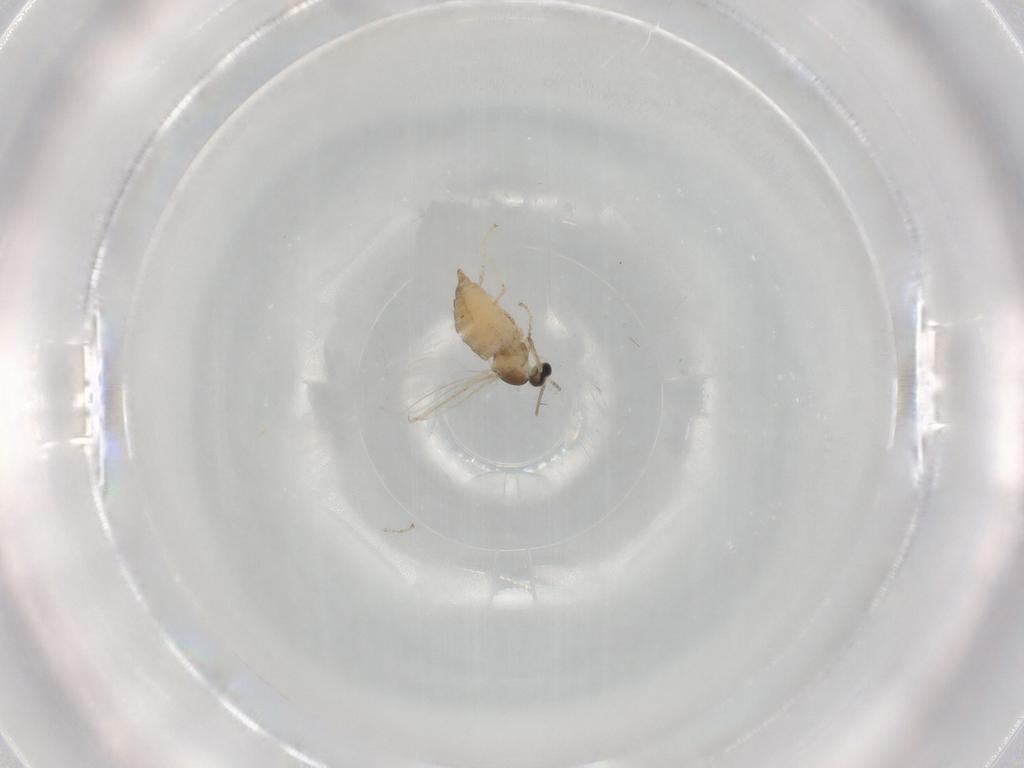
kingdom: Animalia
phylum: Arthropoda
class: Insecta
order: Diptera
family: Cecidomyiidae
